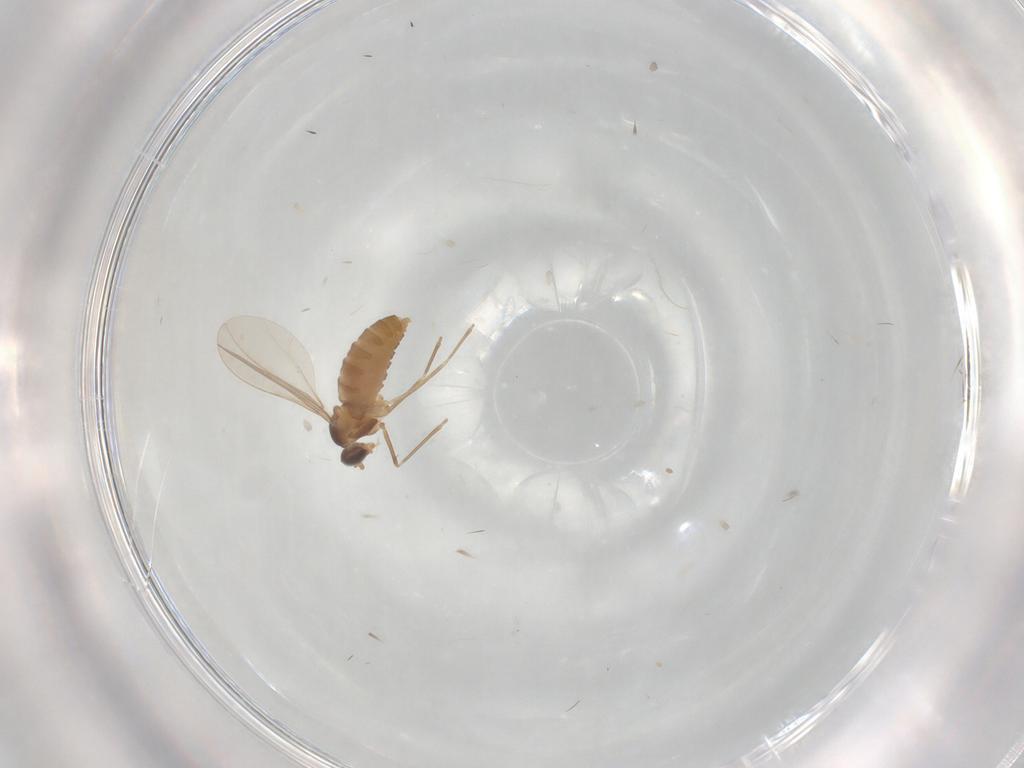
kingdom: Animalia
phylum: Arthropoda
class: Insecta
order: Diptera
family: Cecidomyiidae
